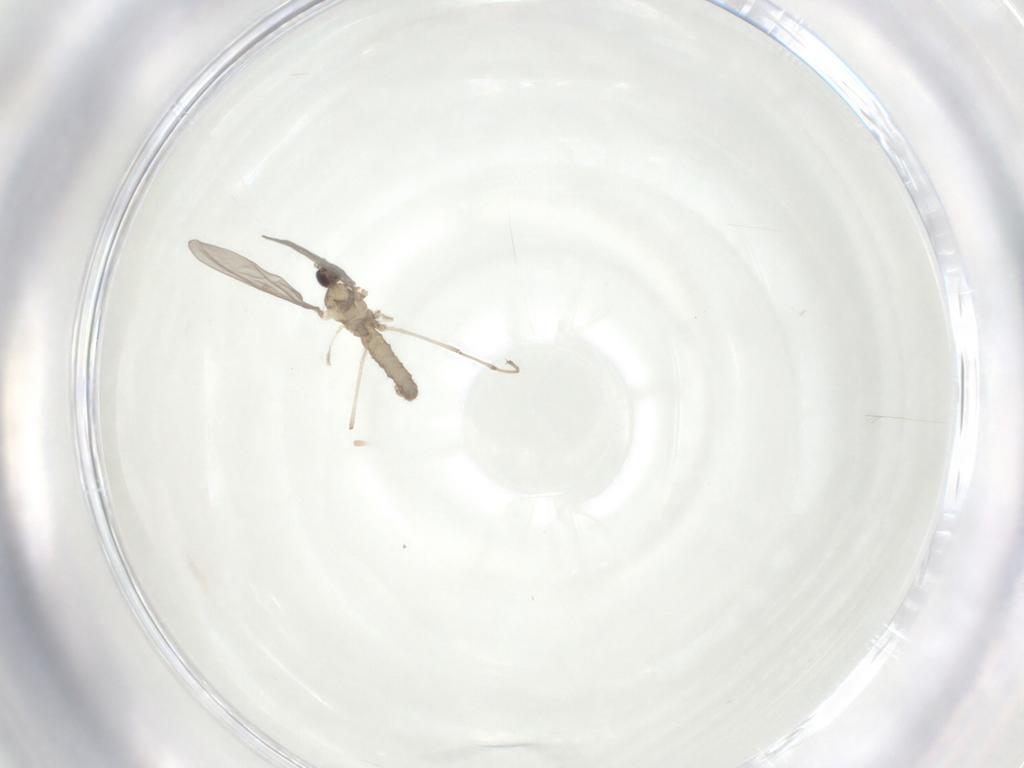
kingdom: Animalia
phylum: Arthropoda
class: Insecta
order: Diptera
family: Cecidomyiidae
